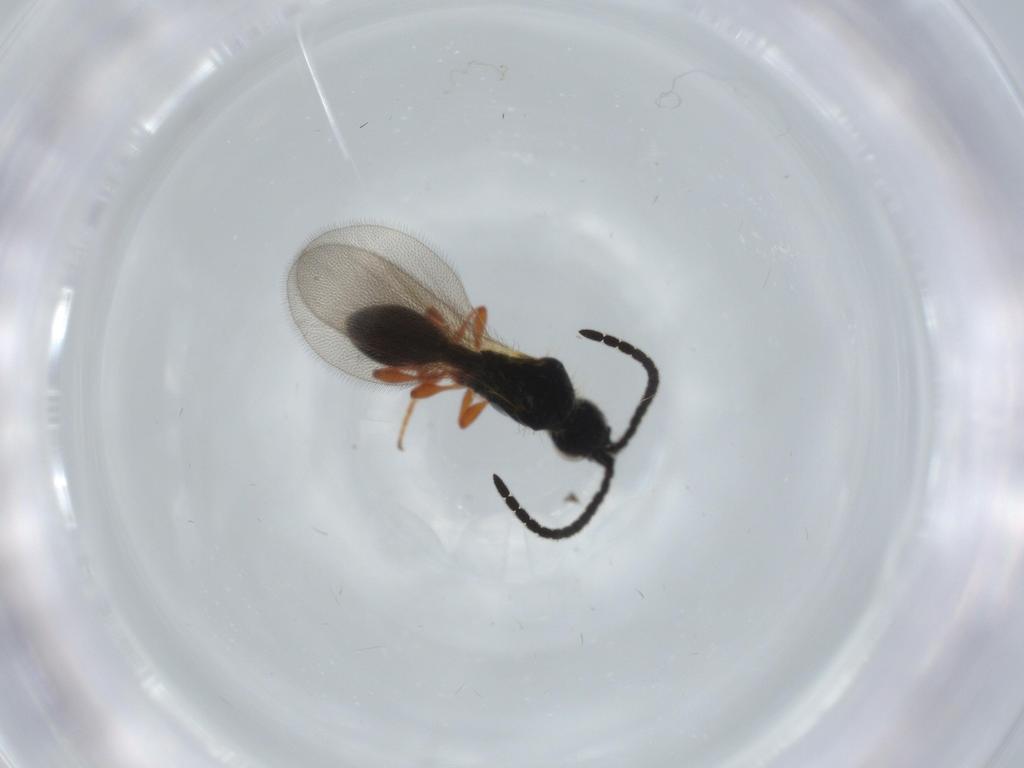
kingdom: Animalia
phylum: Arthropoda
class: Insecta
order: Hymenoptera
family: Diapriidae
